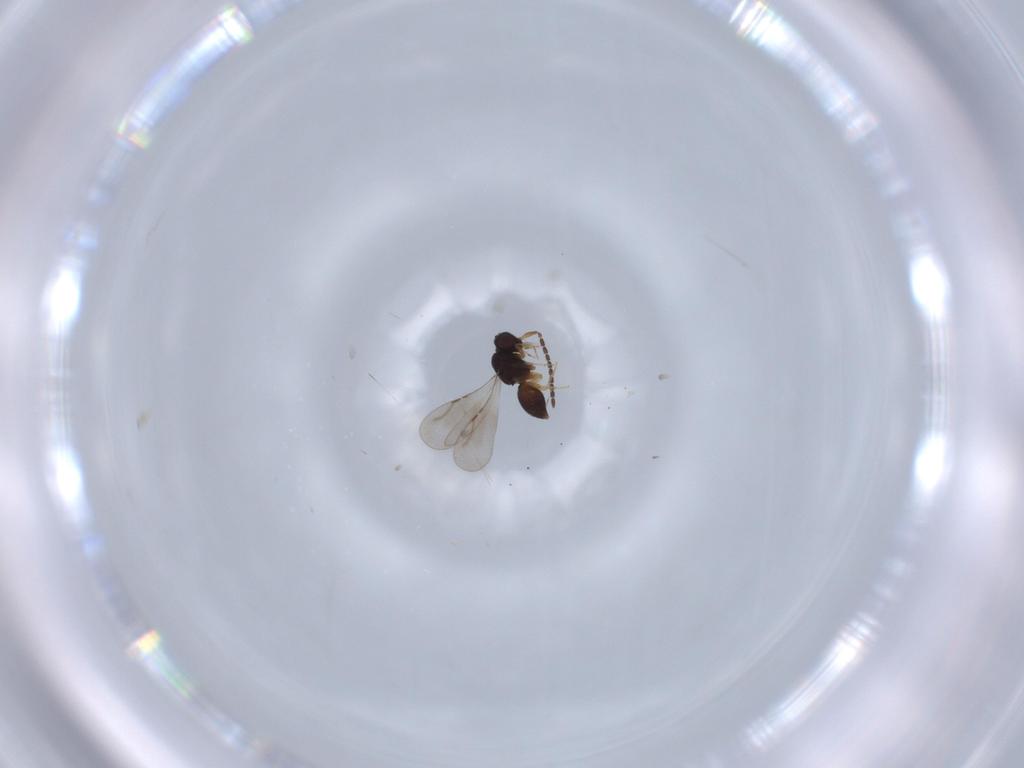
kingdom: Animalia
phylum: Arthropoda
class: Insecta
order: Hymenoptera
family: Ceraphronidae
